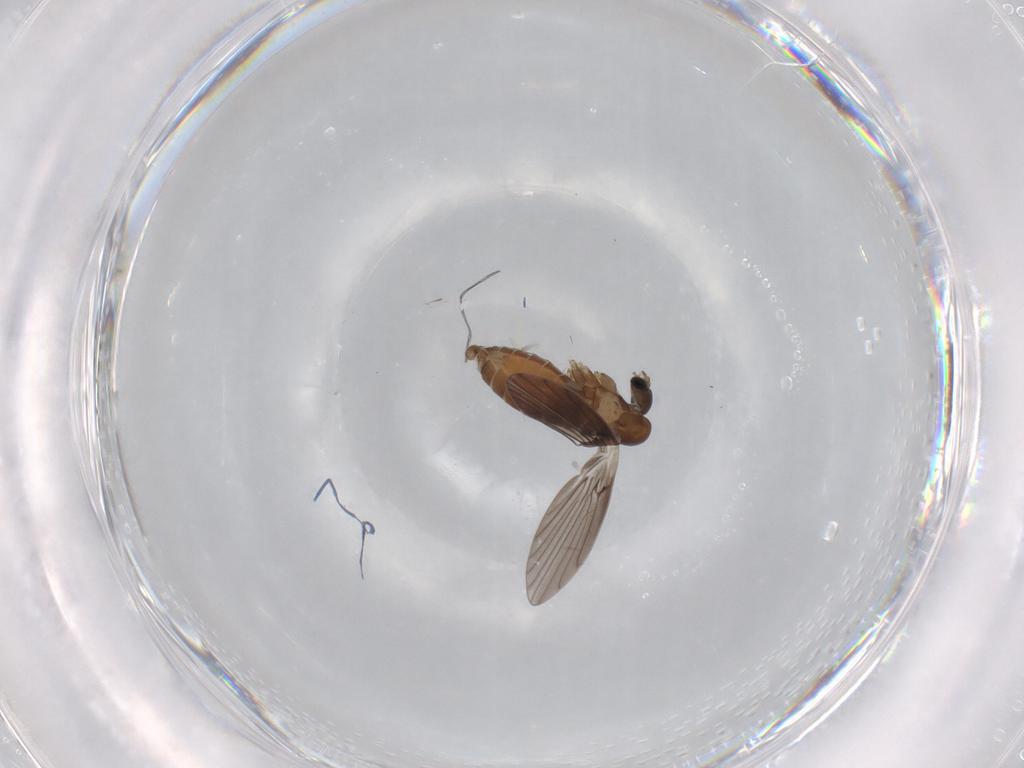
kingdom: Animalia
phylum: Arthropoda
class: Insecta
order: Diptera
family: Psychodidae
